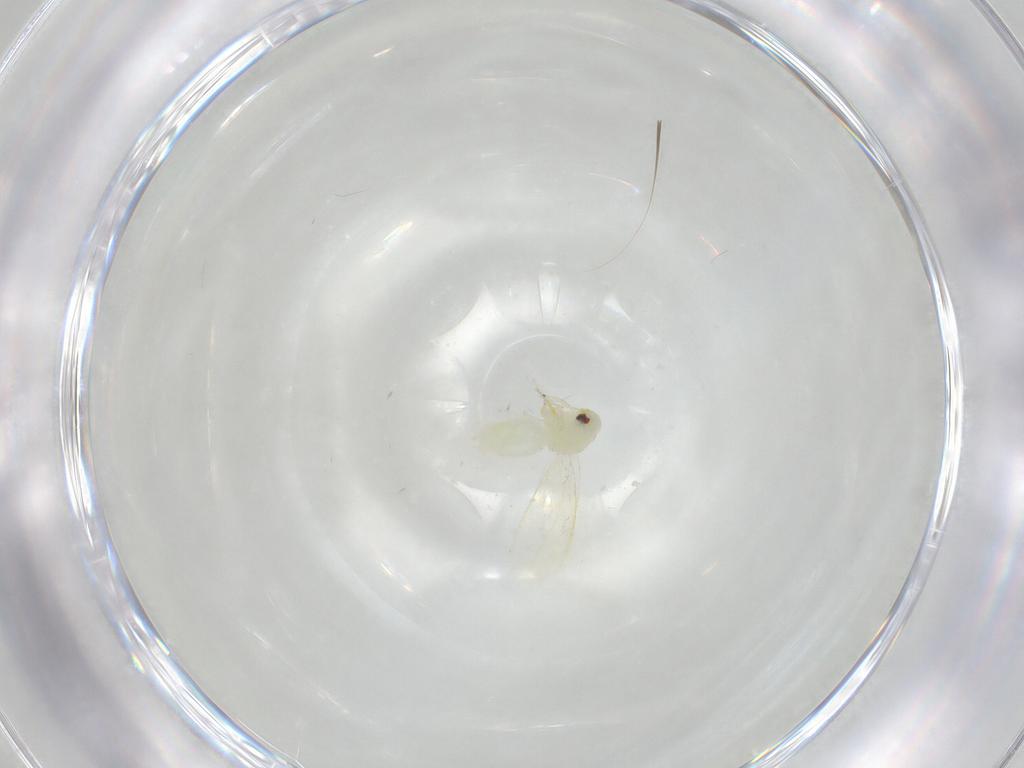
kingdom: Animalia
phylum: Arthropoda
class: Insecta
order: Hemiptera
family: Aleyrodidae
